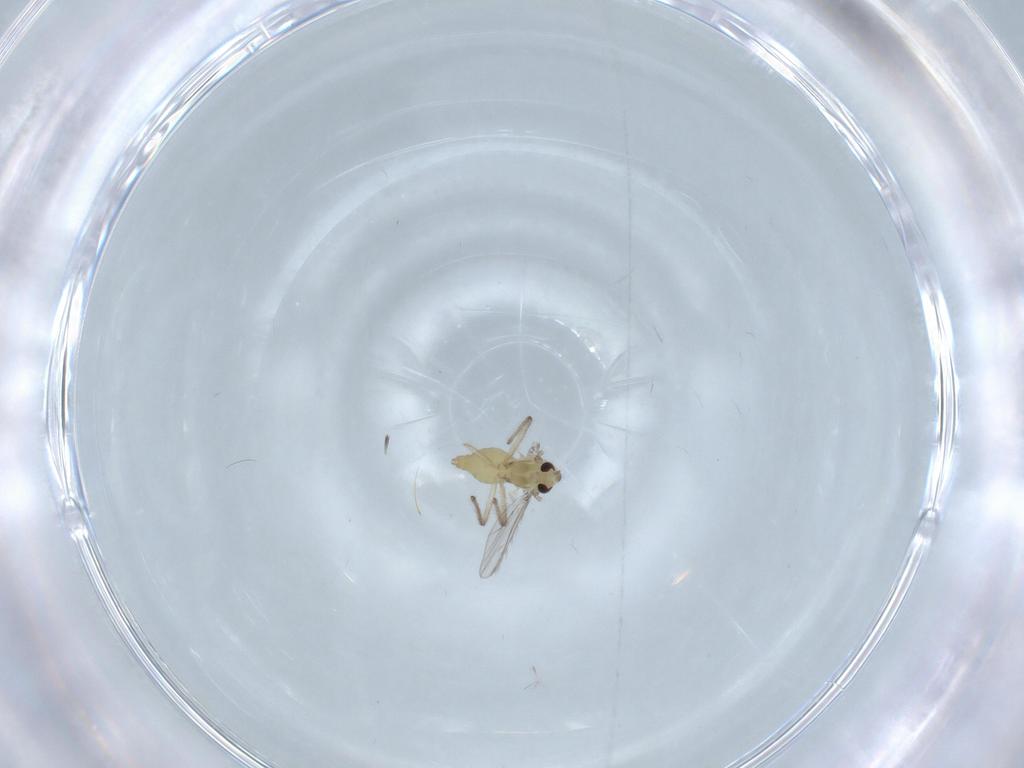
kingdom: Animalia
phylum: Arthropoda
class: Insecta
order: Diptera
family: Chironomidae
